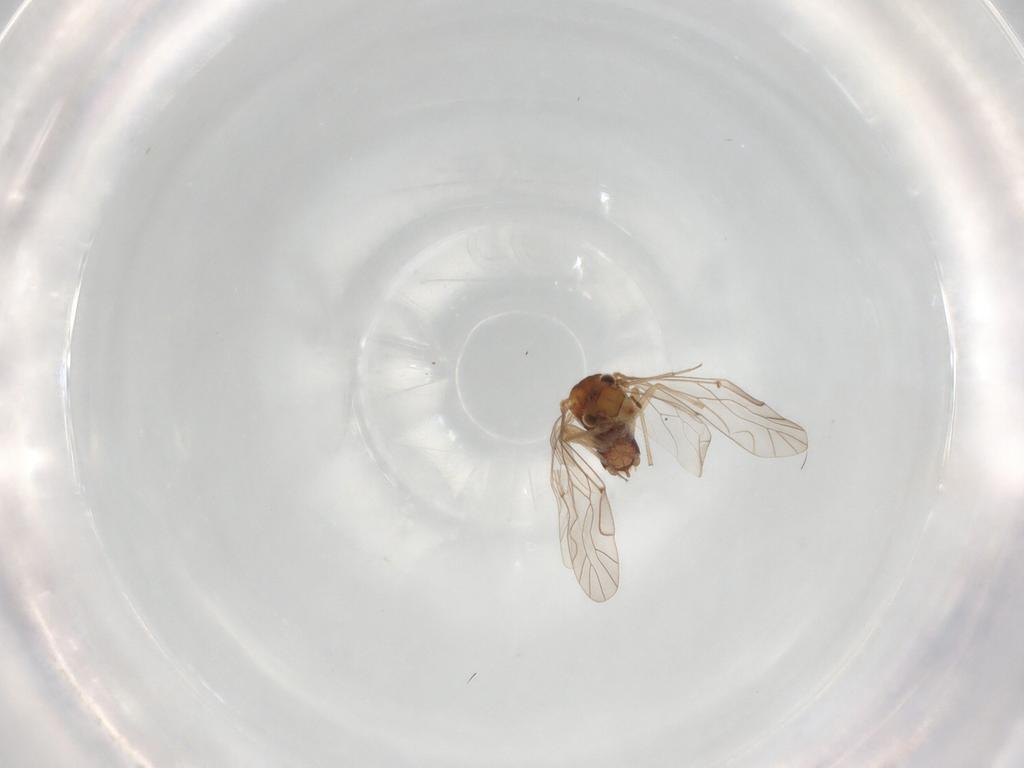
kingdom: Animalia
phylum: Arthropoda
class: Insecta
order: Psocodea
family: Lachesillidae
